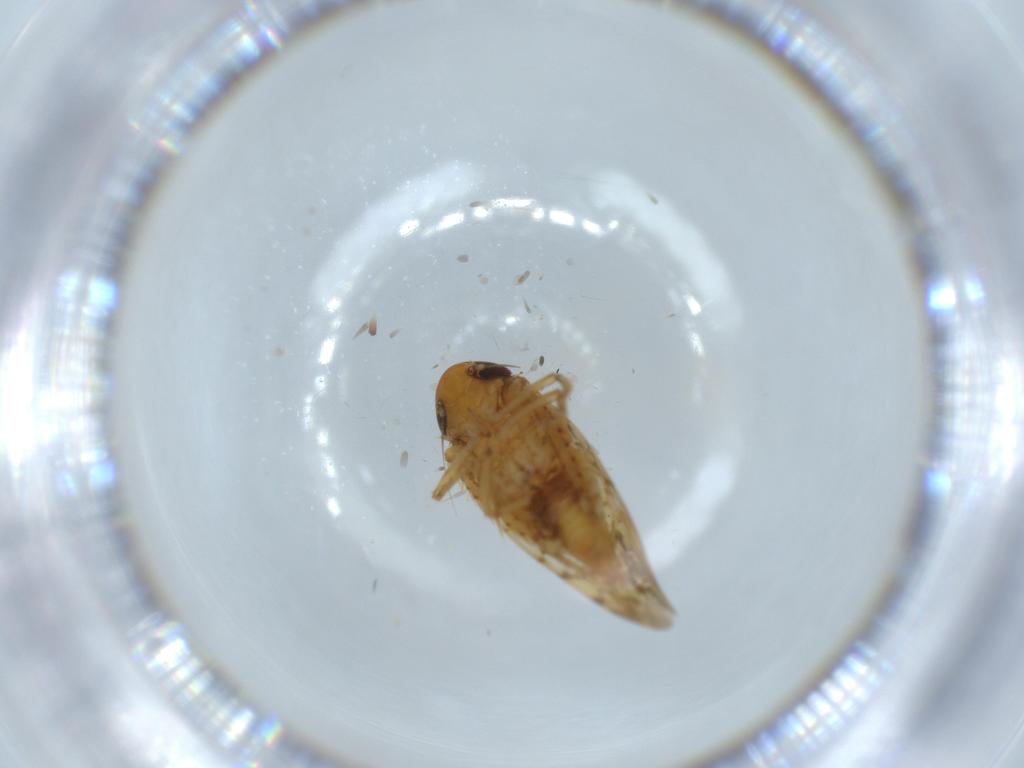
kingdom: Animalia
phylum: Arthropoda
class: Insecta
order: Hemiptera
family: Cicadellidae
